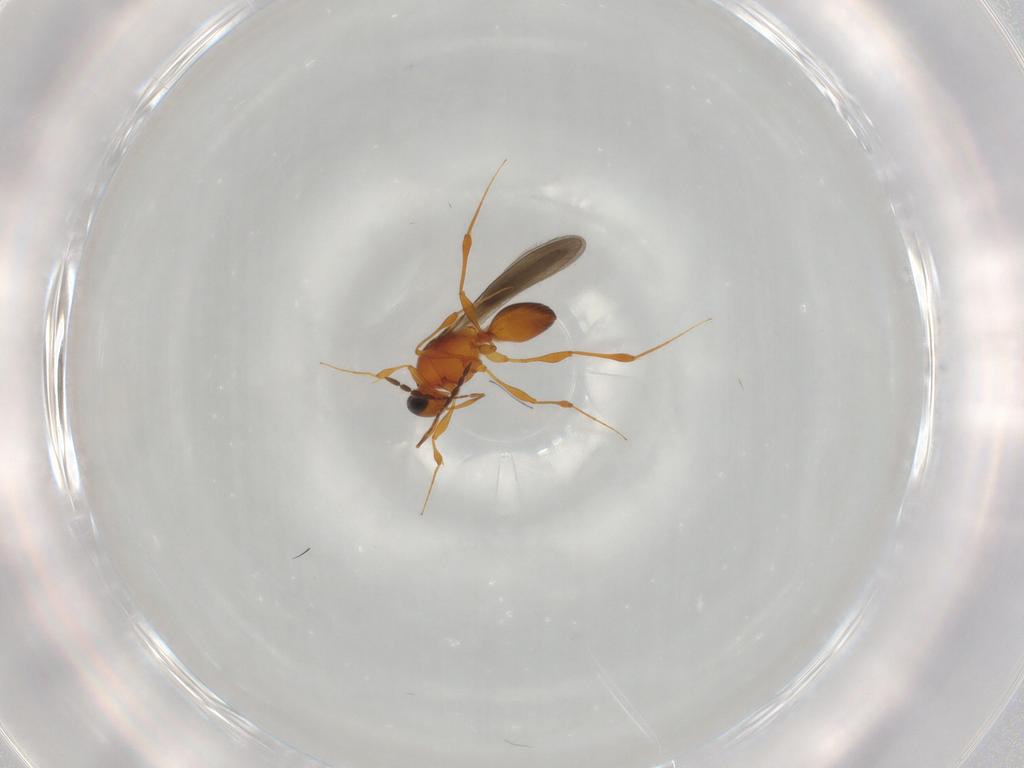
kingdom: Animalia
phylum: Arthropoda
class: Insecta
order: Hymenoptera
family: Platygastridae
